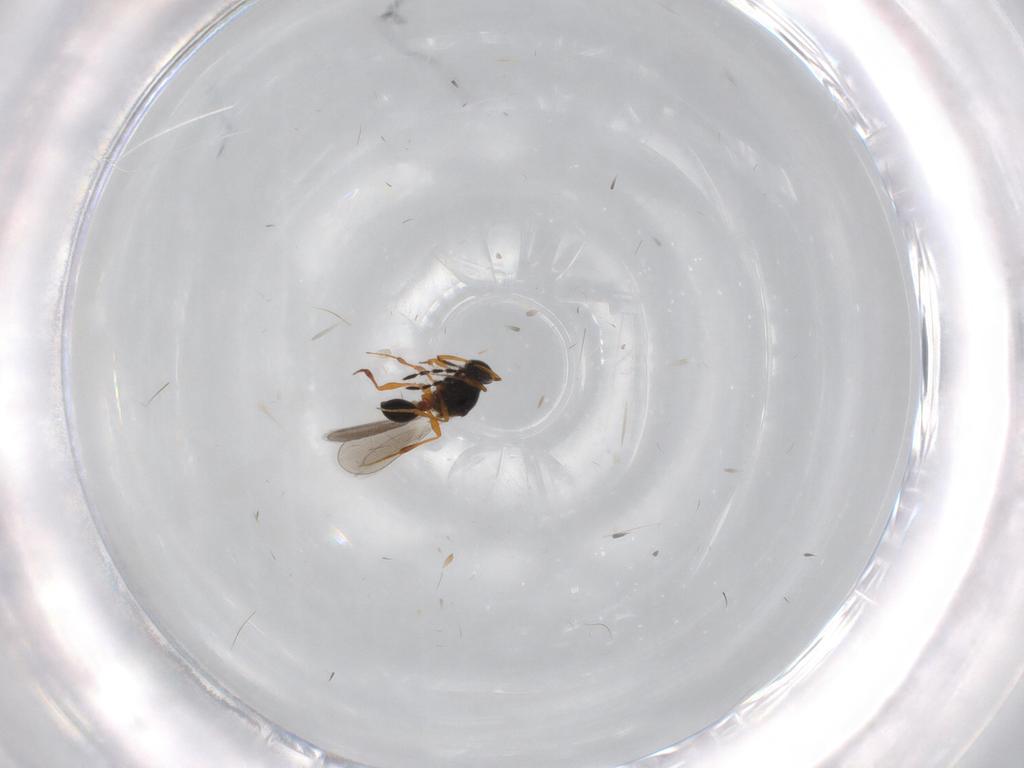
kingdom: Animalia
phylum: Arthropoda
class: Insecta
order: Hymenoptera
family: Platygastridae
